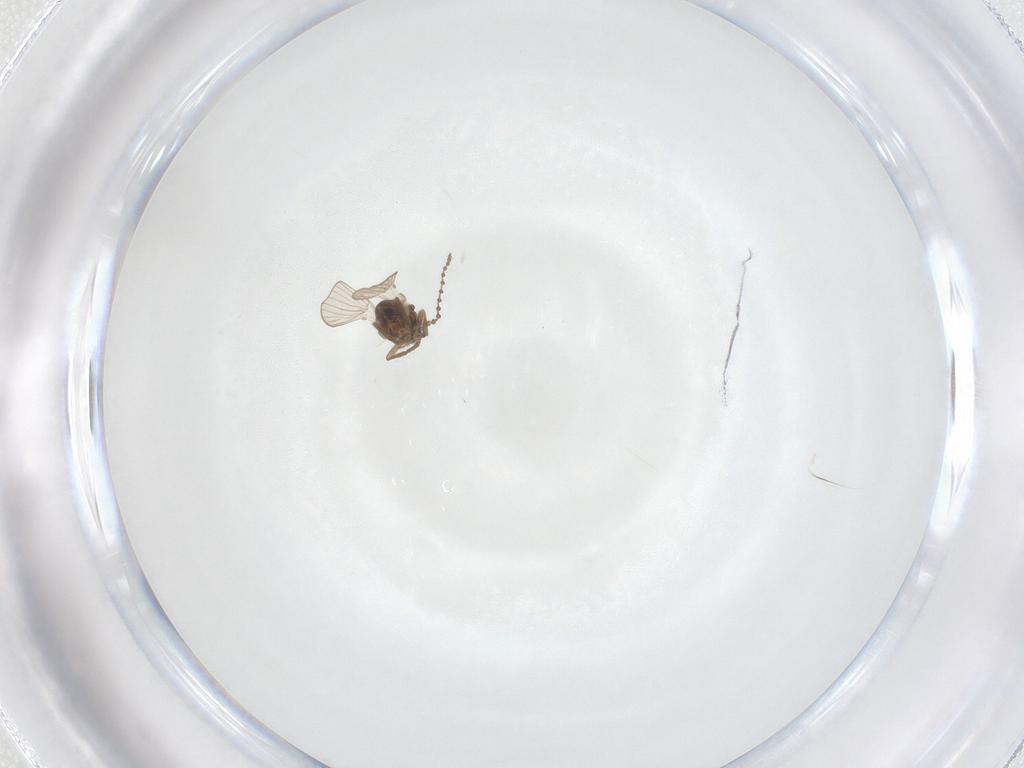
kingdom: Animalia
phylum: Arthropoda
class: Insecta
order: Diptera
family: Psychodidae
